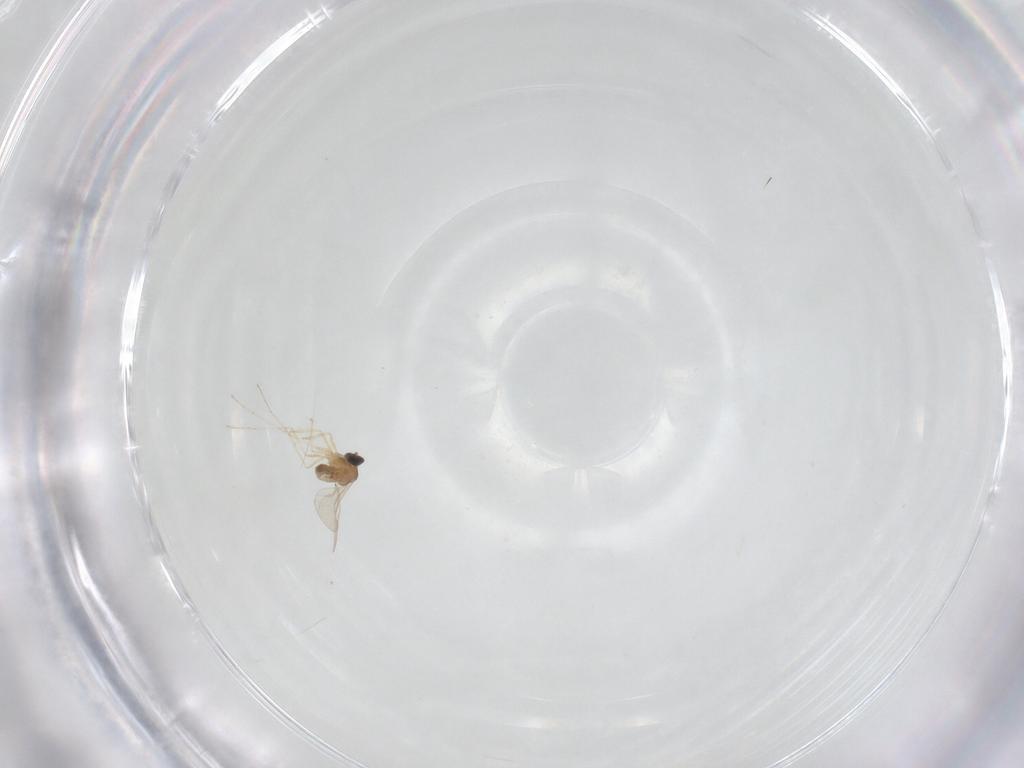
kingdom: Animalia
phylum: Arthropoda
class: Insecta
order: Diptera
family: Cecidomyiidae
